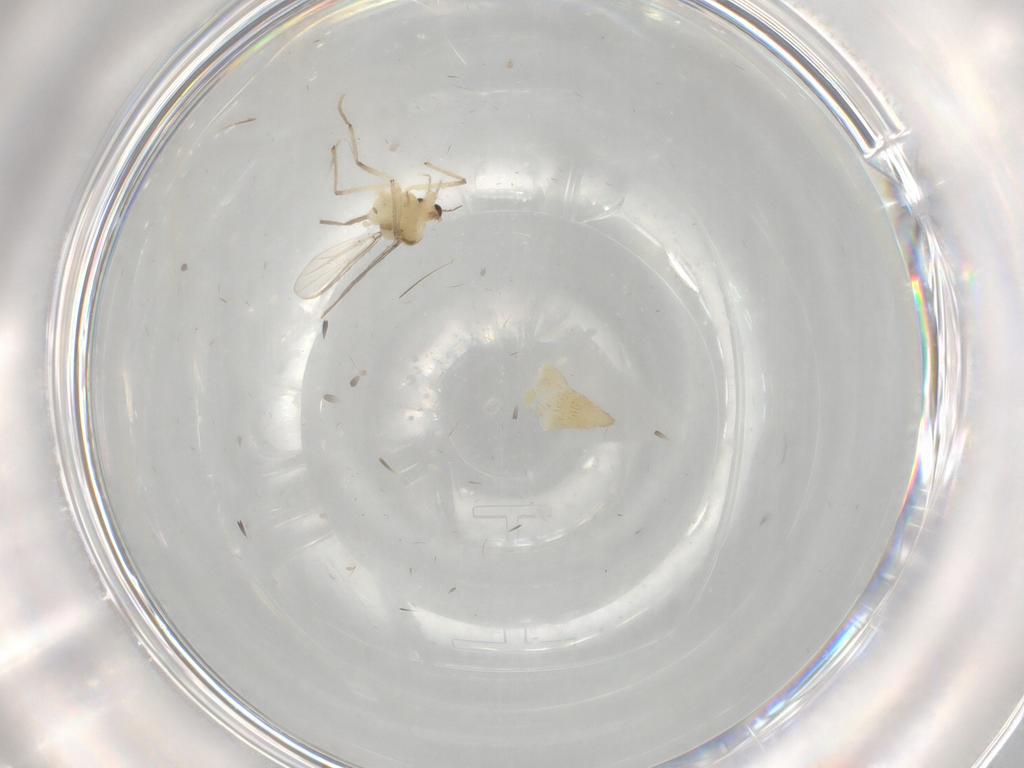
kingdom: Animalia
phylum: Arthropoda
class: Insecta
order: Diptera
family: Chironomidae
